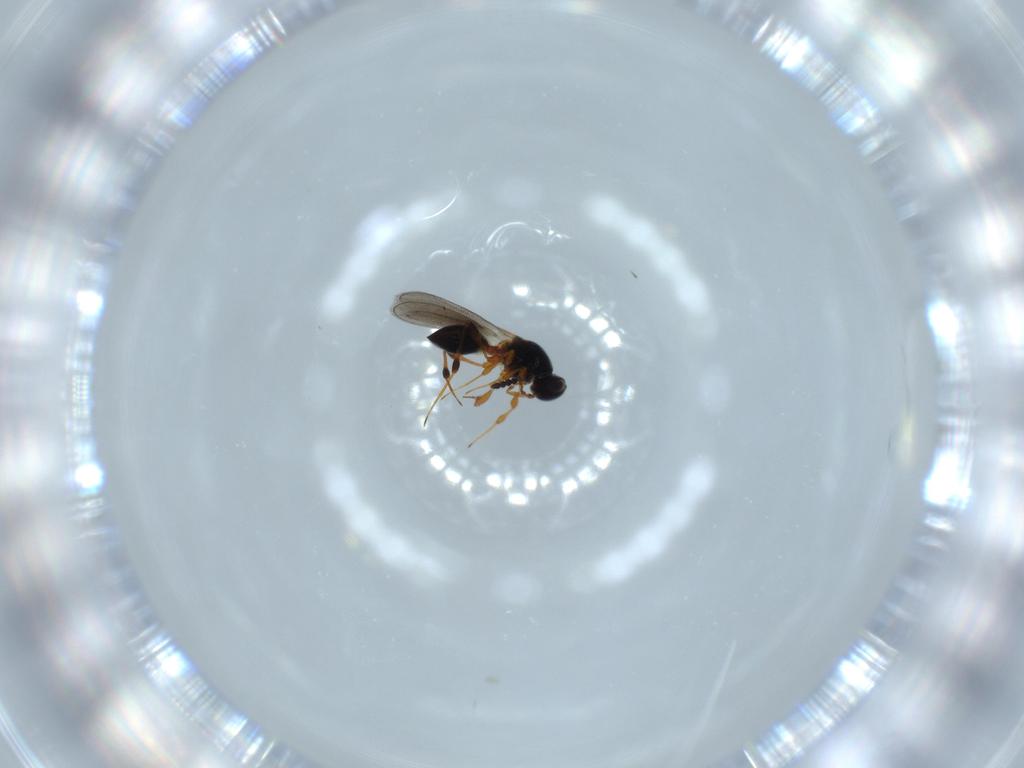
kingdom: Animalia
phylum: Arthropoda
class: Insecta
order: Hymenoptera
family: Platygastridae
